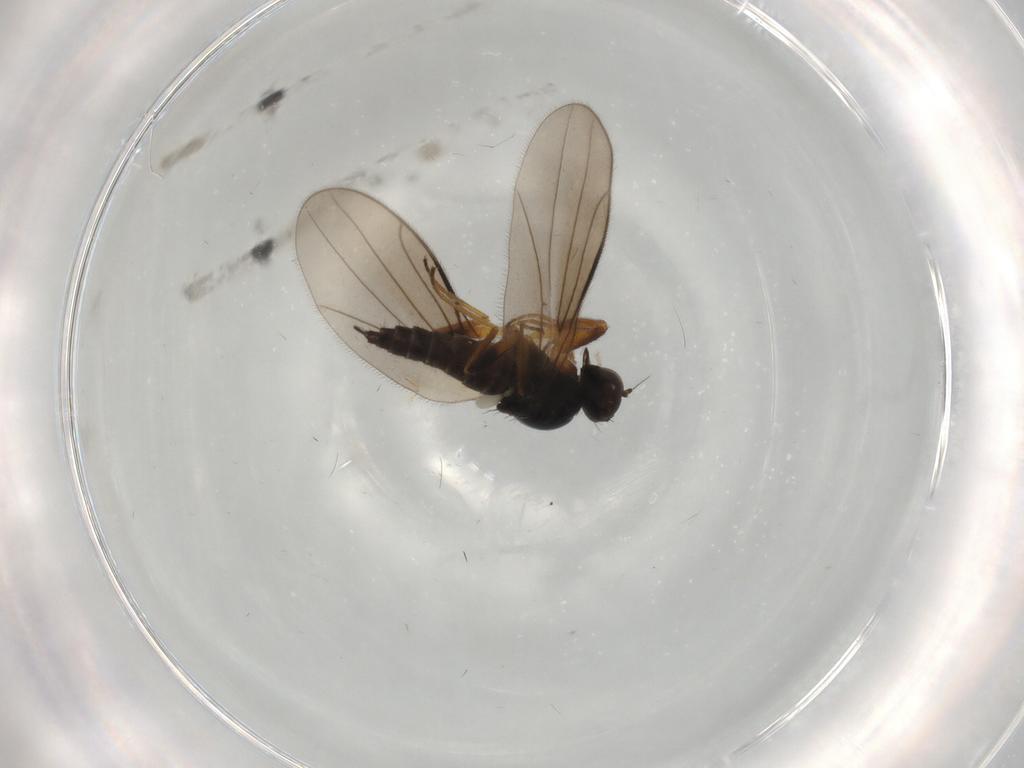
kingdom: Animalia
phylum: Arthropoda
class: Insecta
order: Diptera
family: Hybotidae
